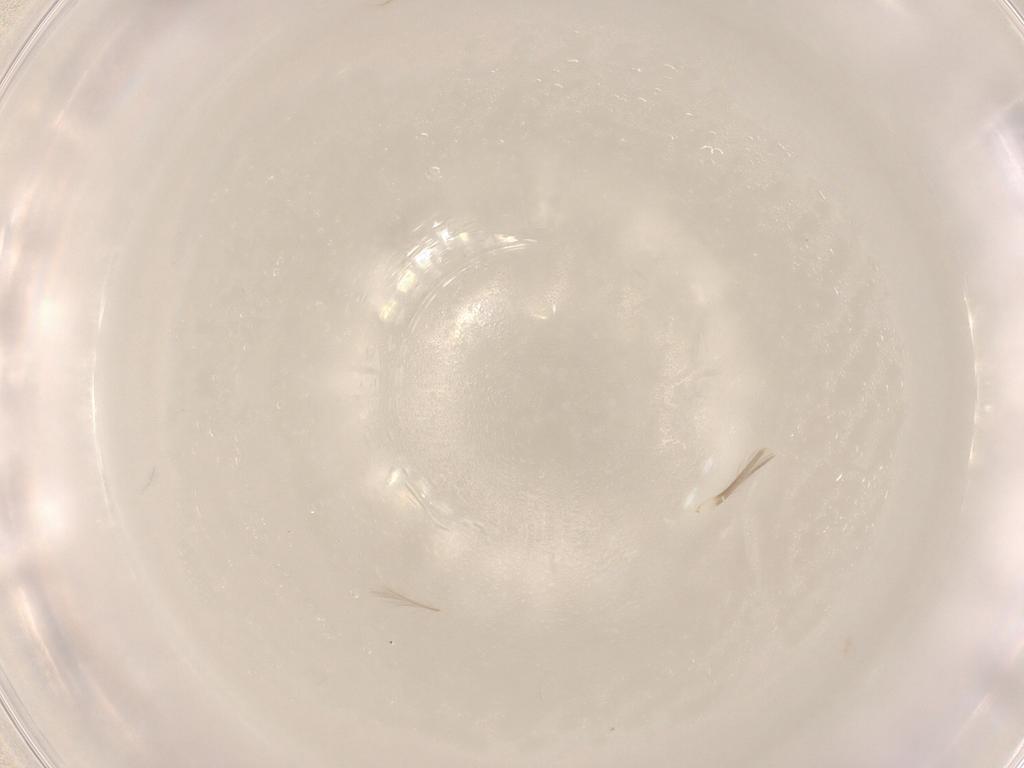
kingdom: Animalia
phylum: Arthropoda
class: Insecta
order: Thysanoptera
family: Thripidae
